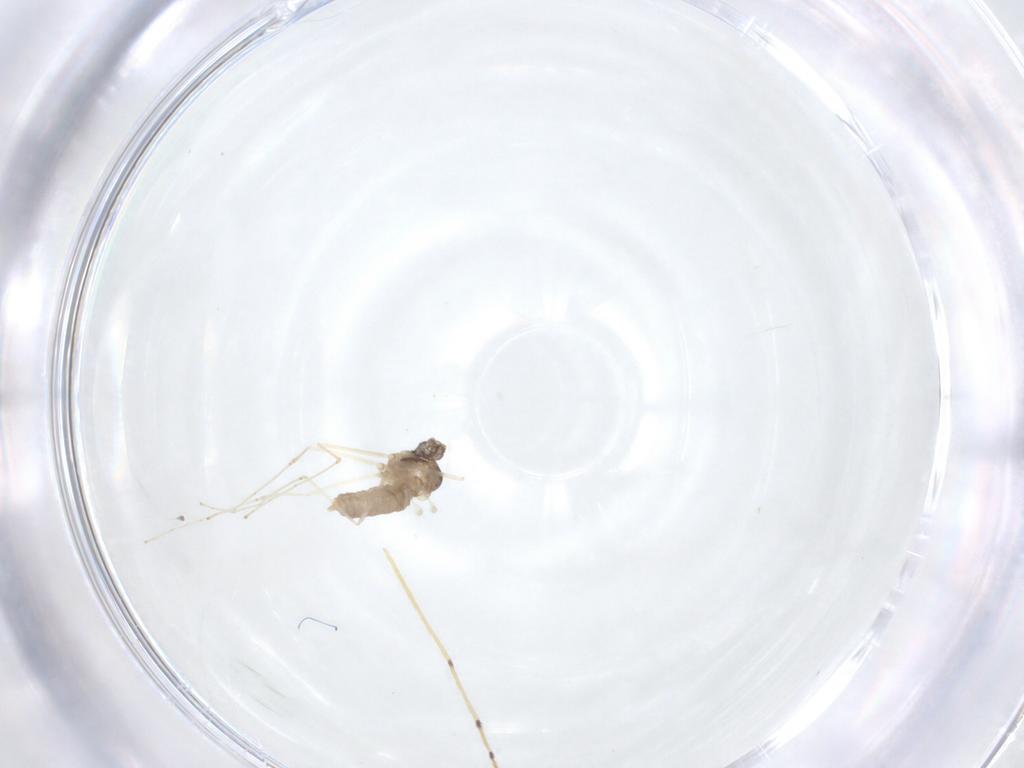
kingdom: Animalia
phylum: Arthropoda
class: Insecta
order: Diptera
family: Cecidomyiidae
